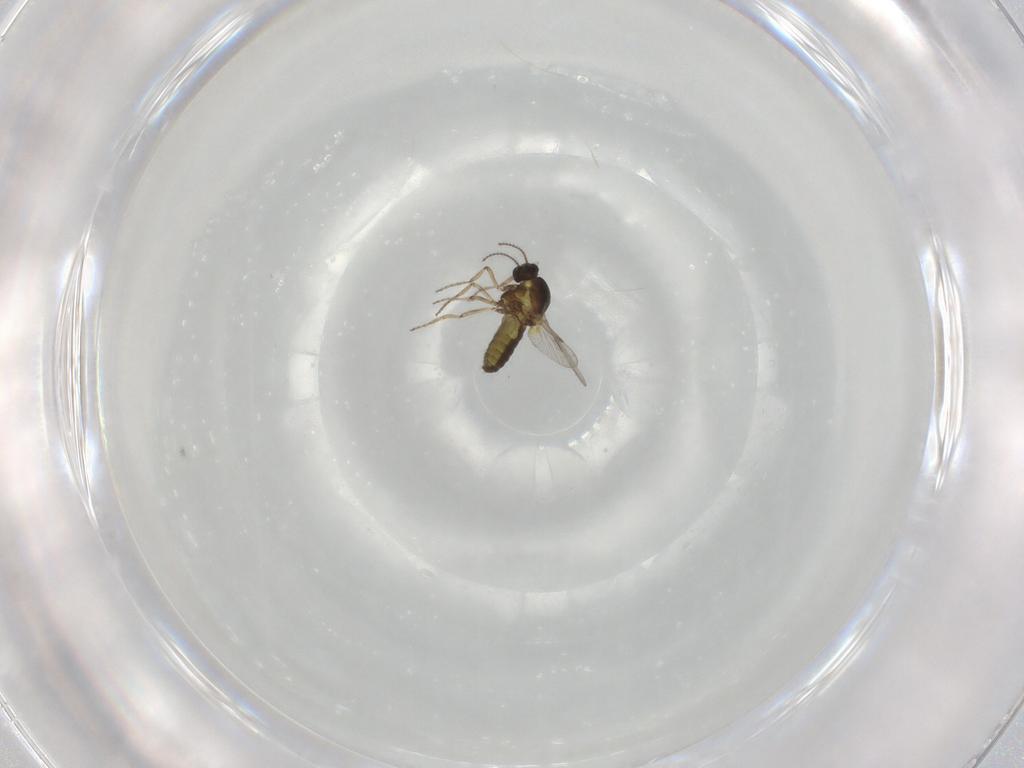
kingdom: Animalia
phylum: Arthropoda
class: Insecta
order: Diptera
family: Ceratopogonidae
